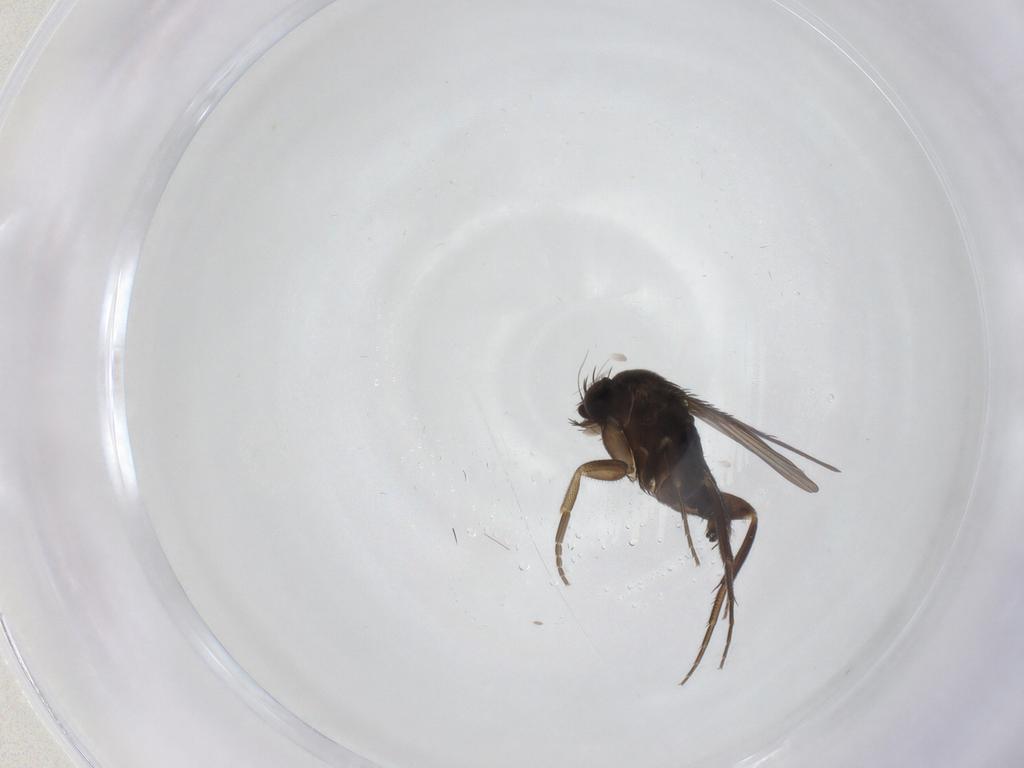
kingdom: Animalia
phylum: Arthropoda
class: Insecta
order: Diptera
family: Phoridae
